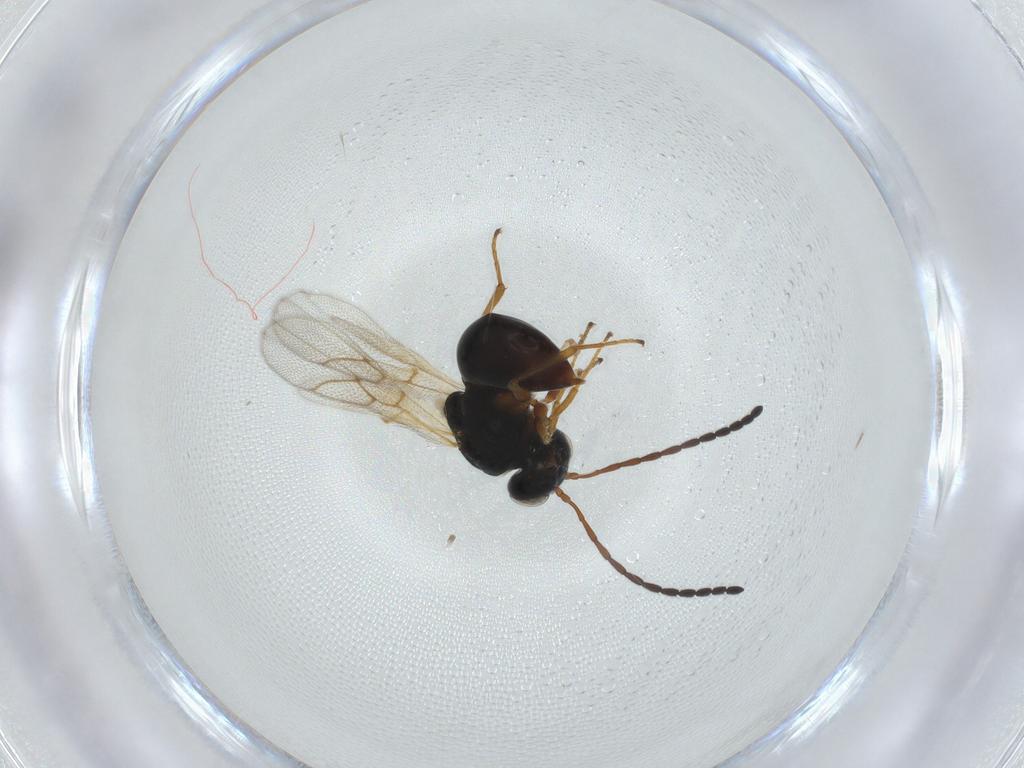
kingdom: Animalia
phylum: Arthropoda
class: Insecta
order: Hymenoptera
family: Figitidae
